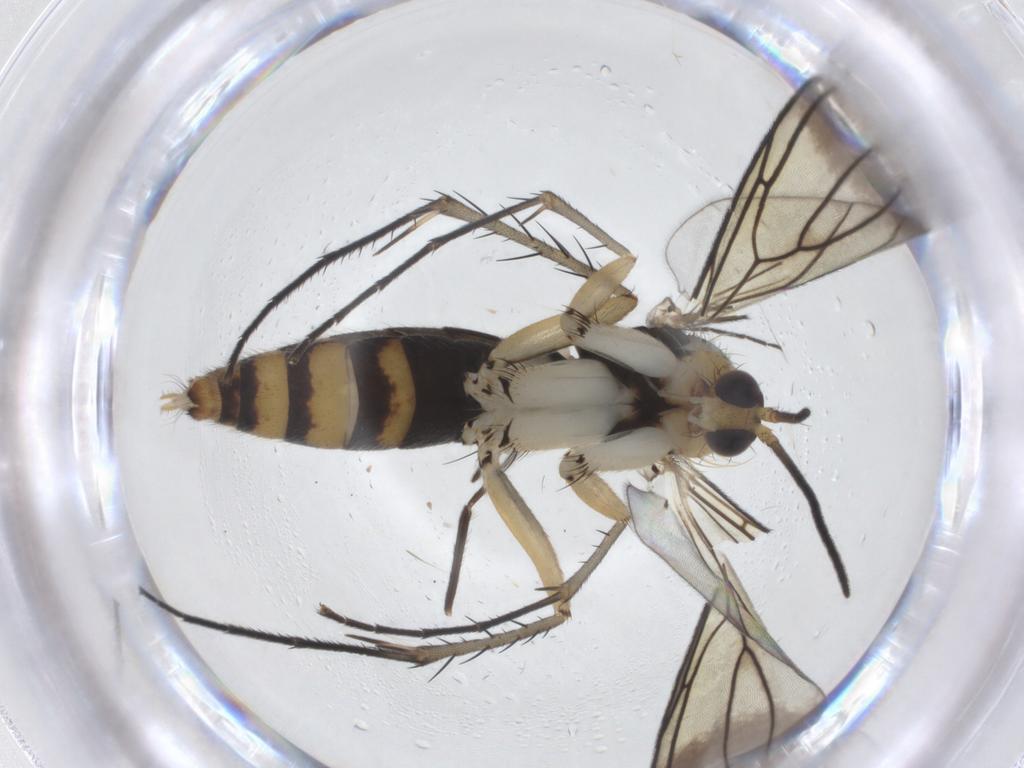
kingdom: Animalia
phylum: Arthropoda
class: Insecta
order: Diptera
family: Mycetophilidae
